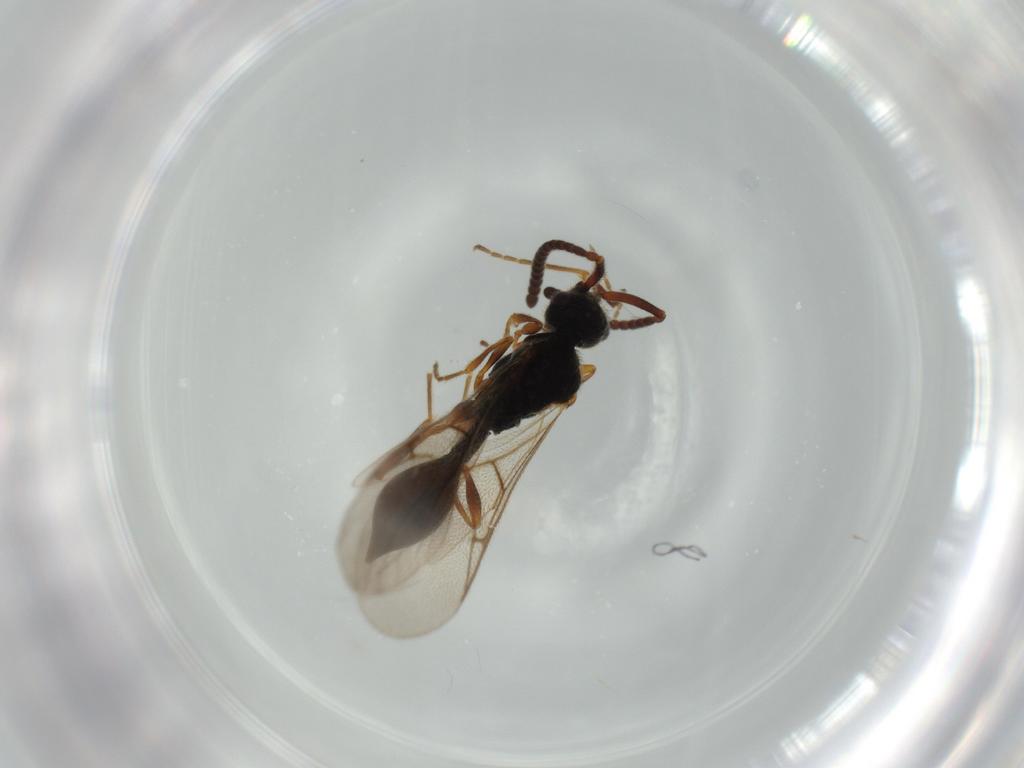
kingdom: Animalia
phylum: Arthropoda
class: Insecta
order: Hymenoptera
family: Diapriidae
